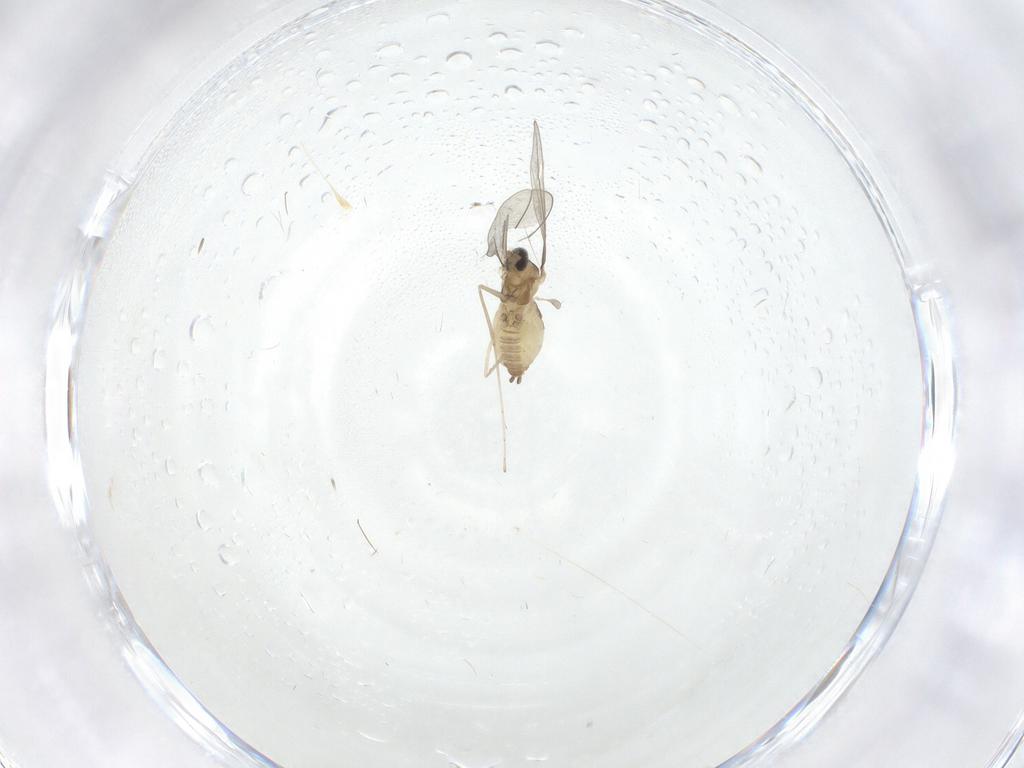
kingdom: Animalia
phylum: Arthropoda
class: Insecta
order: Diptera
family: Cecidomyiidae
